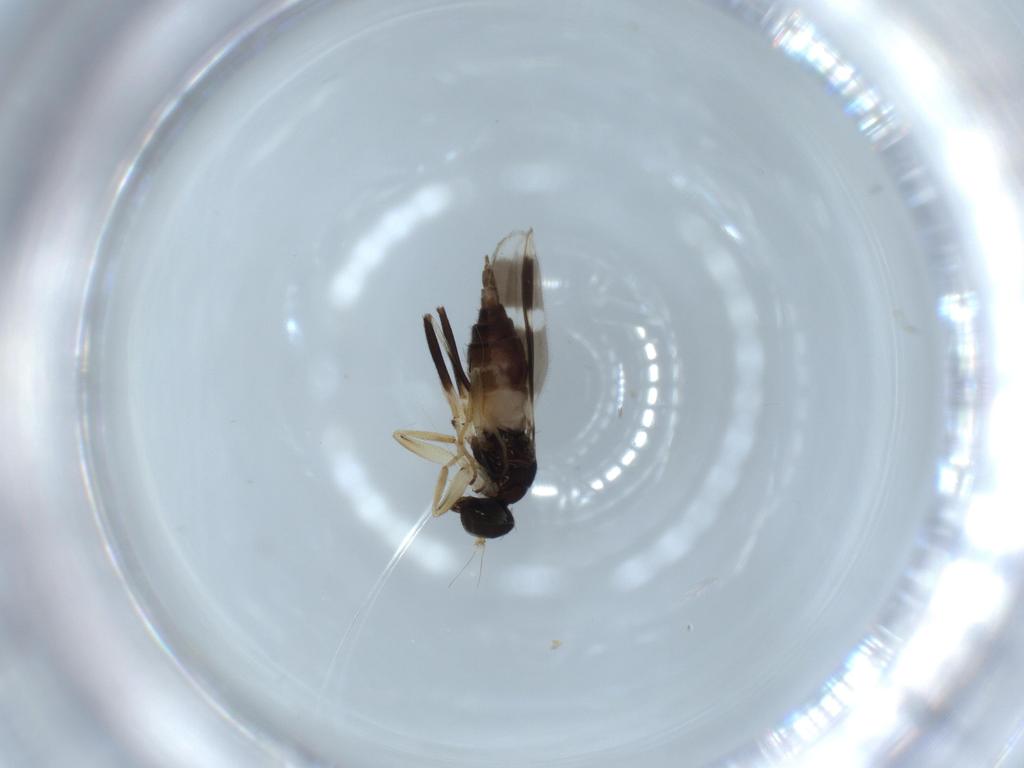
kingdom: Animalia
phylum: Arthropoda
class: Insecta
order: Diptera
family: Hybotidae
